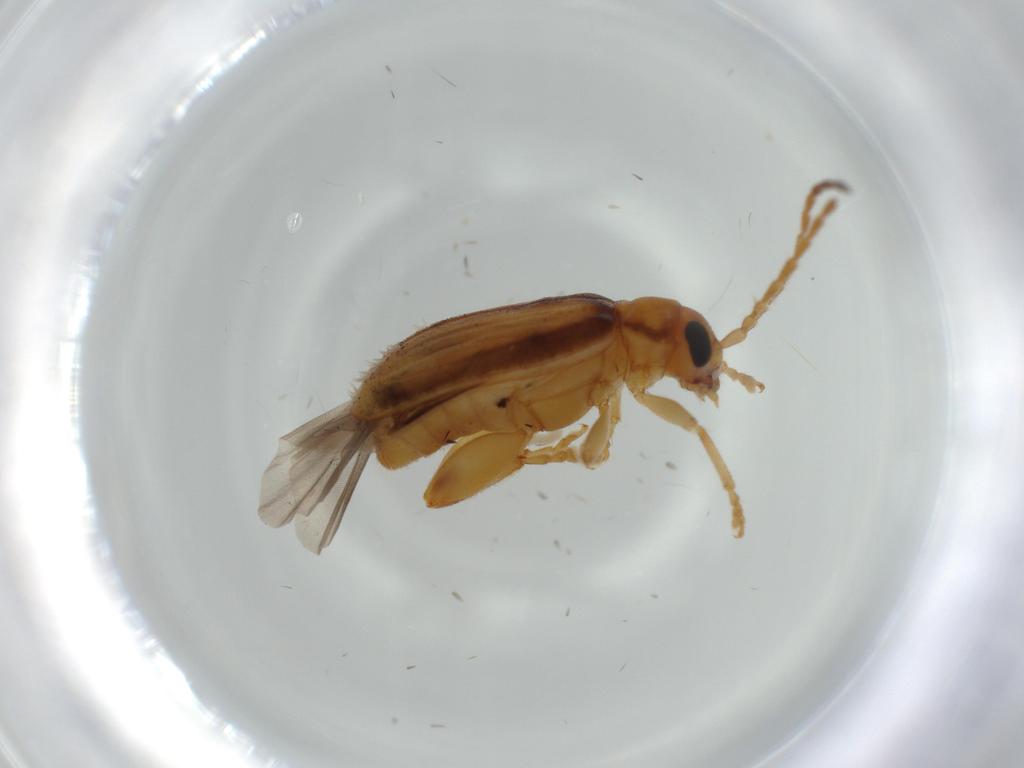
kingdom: Animalia
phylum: Arthropoda
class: Insecta
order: Coleoptera
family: Chrysomelidae
